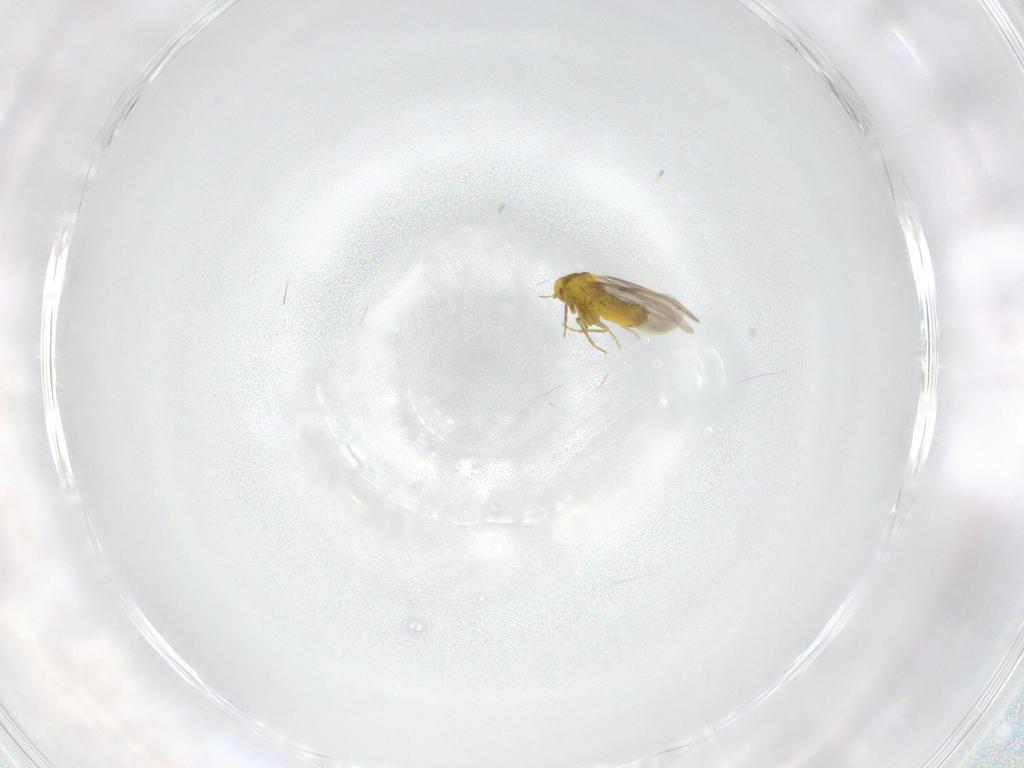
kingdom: Animalia
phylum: Arthropoda
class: Insecta
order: Hemiptera
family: Aleyrodidae
